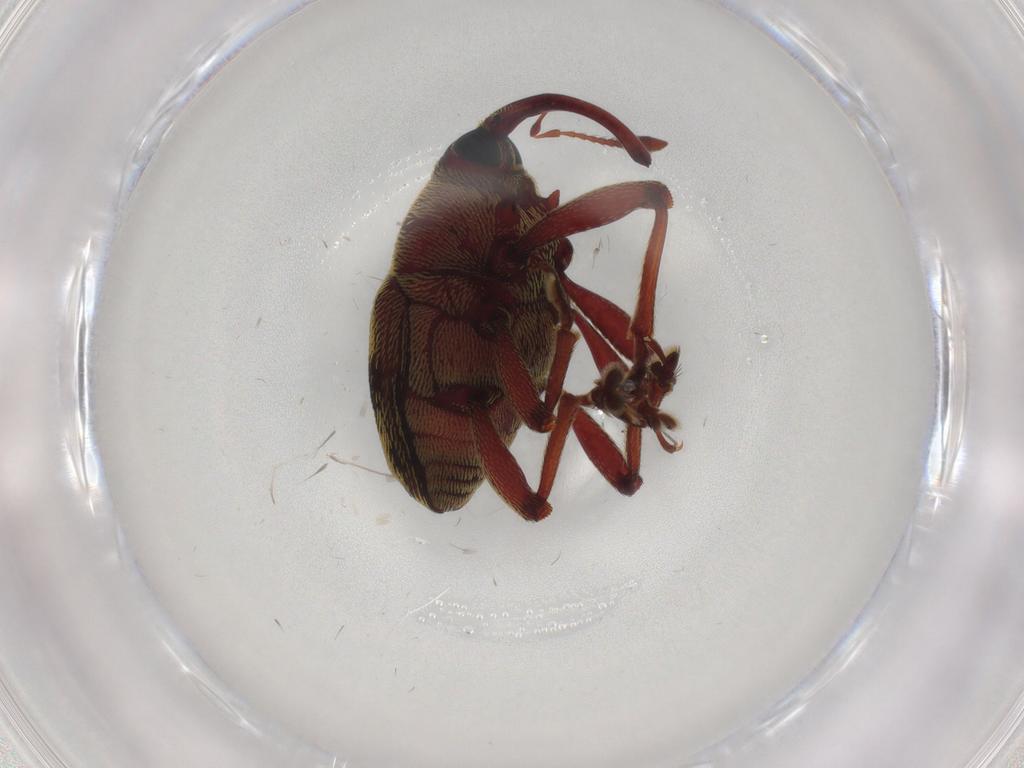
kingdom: Animalia
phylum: Arthropoda
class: Insecta
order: Coleoptera
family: Curculionidae
